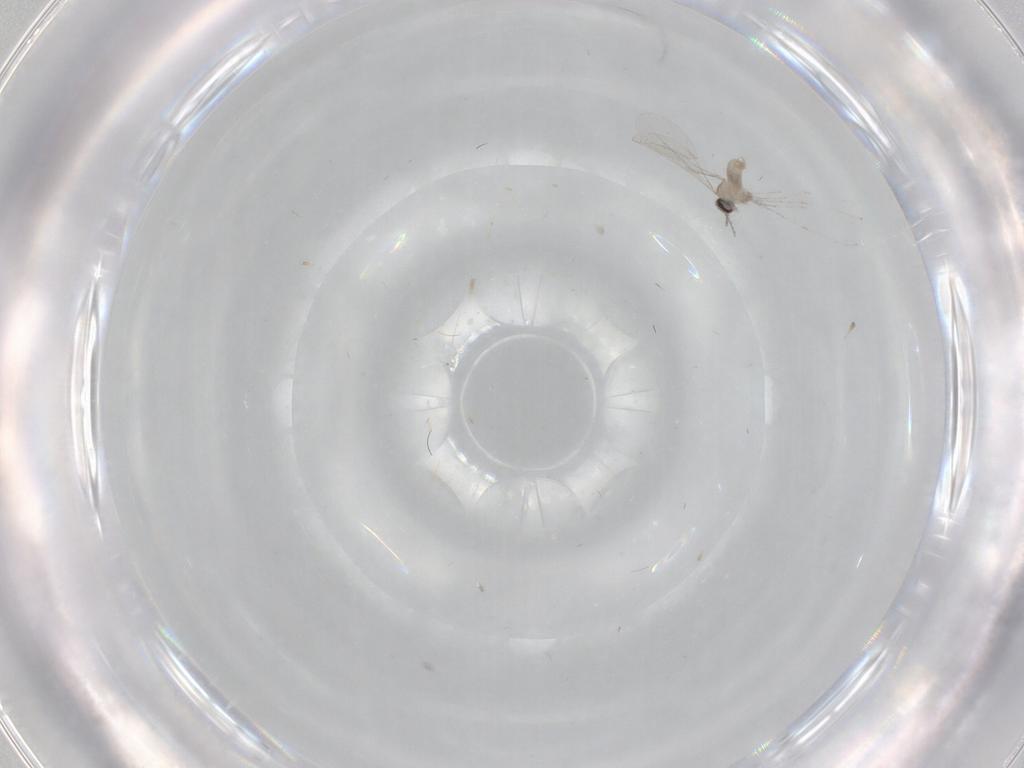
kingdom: Animalia
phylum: Arthropoda
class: Insecta
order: Diptera
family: Cecidomyiidae
